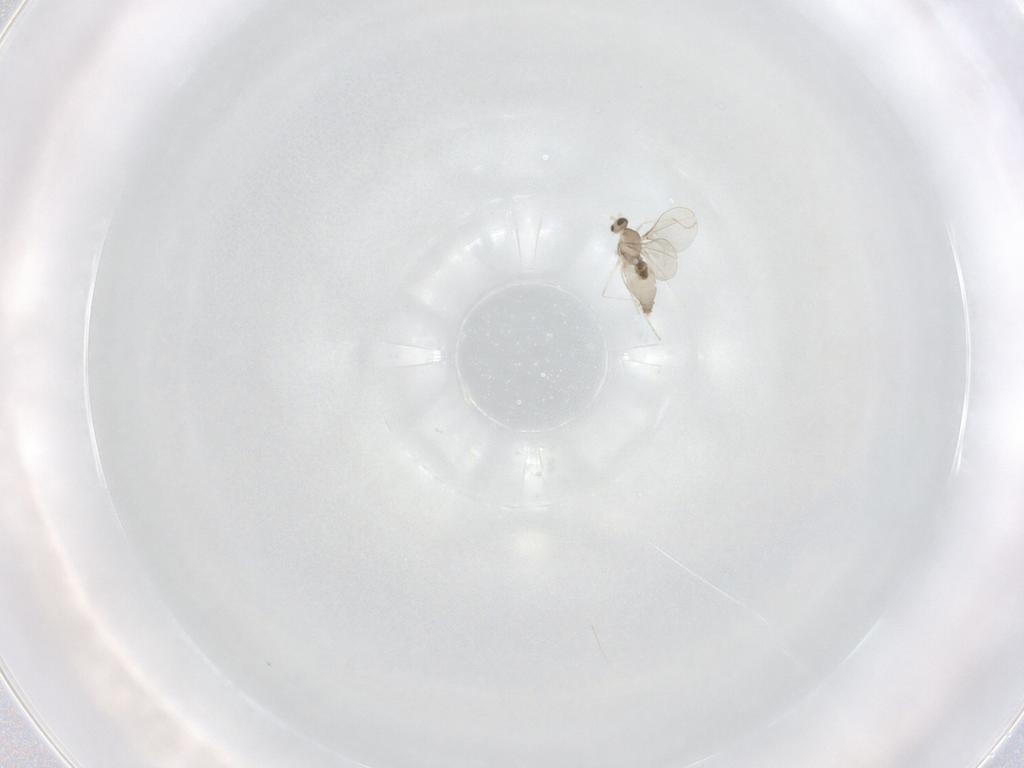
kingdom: Animalia
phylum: Arthropoda
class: Insecta
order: Diptera
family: Cecidomyiidae
